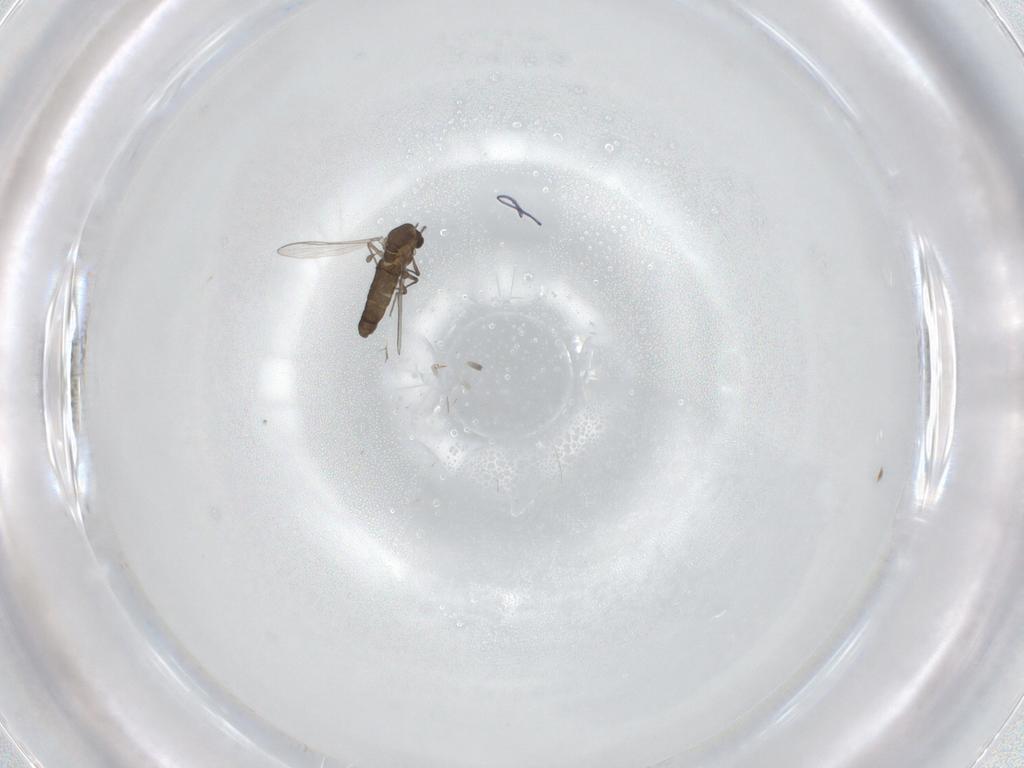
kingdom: Animalia
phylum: Arthropoda
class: Insecta
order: Diptera
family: Chironomidae
